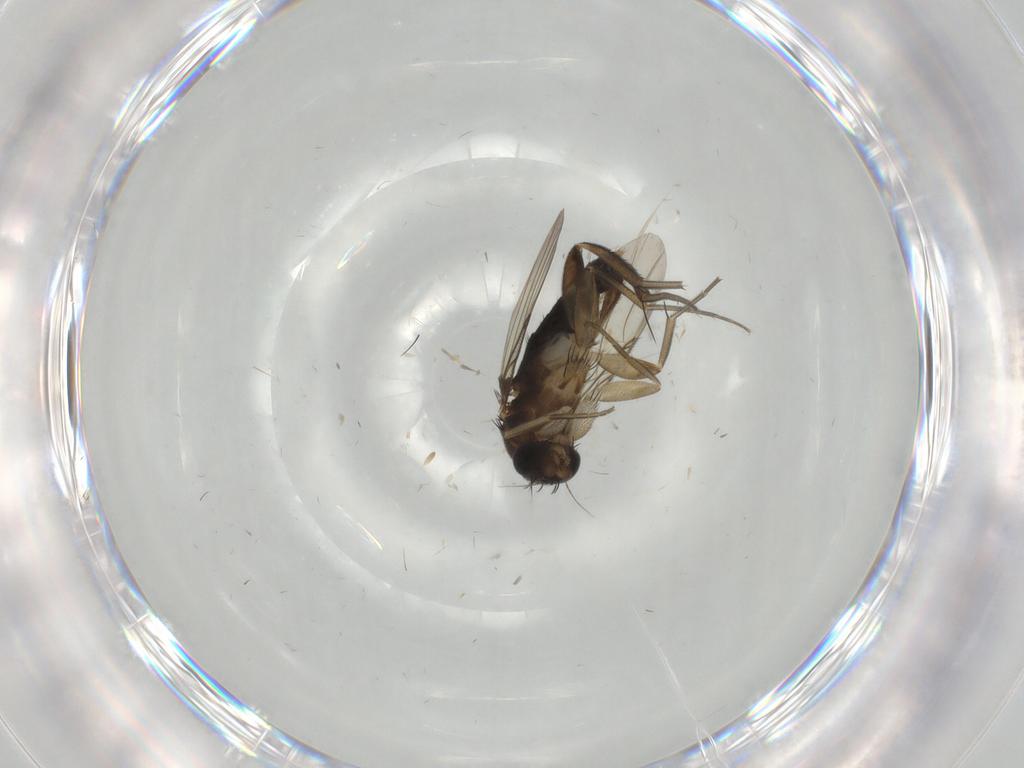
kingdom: Animalia
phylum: Arthropoda
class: Insecta
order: Diptera
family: Phoridae
